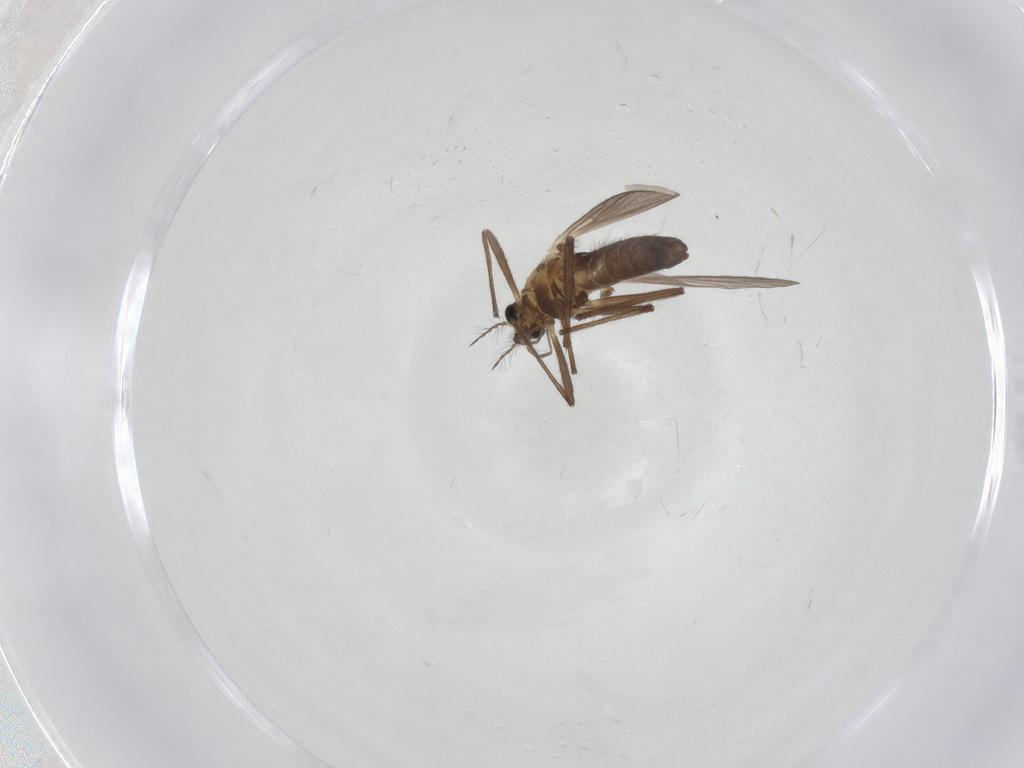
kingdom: Animalia
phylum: Arthropoda
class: Insecta
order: Diptera
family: Chironomidae
